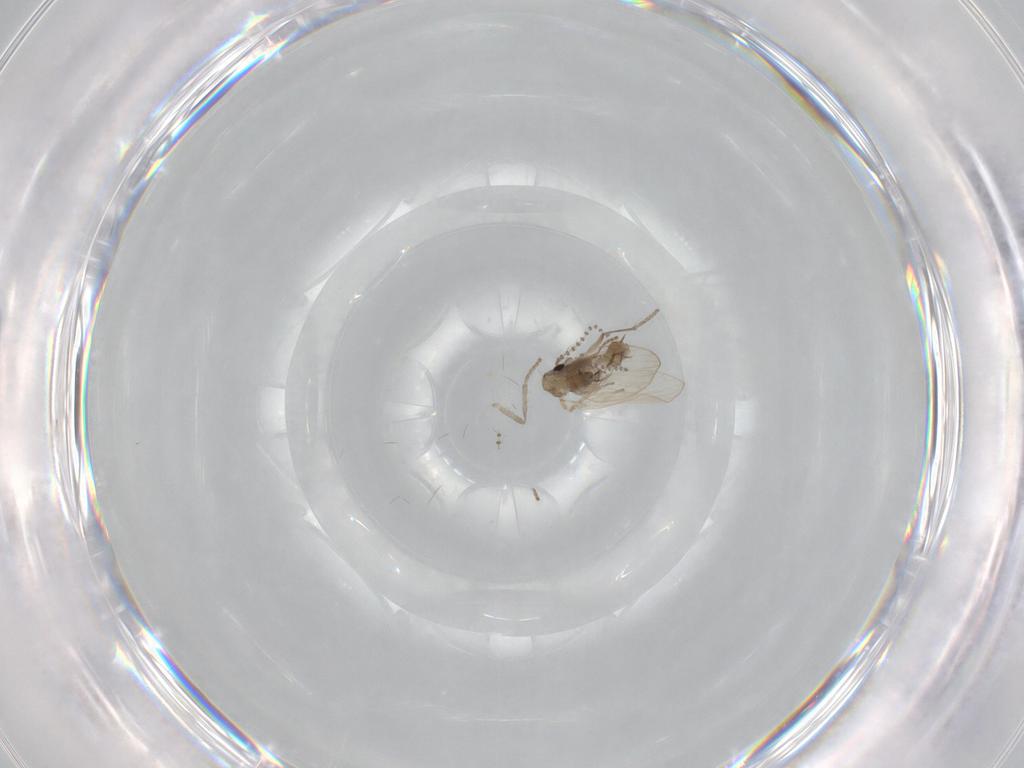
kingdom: Animalia
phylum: Arthropoda
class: Insecta
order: Diptera
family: Psychodidae
